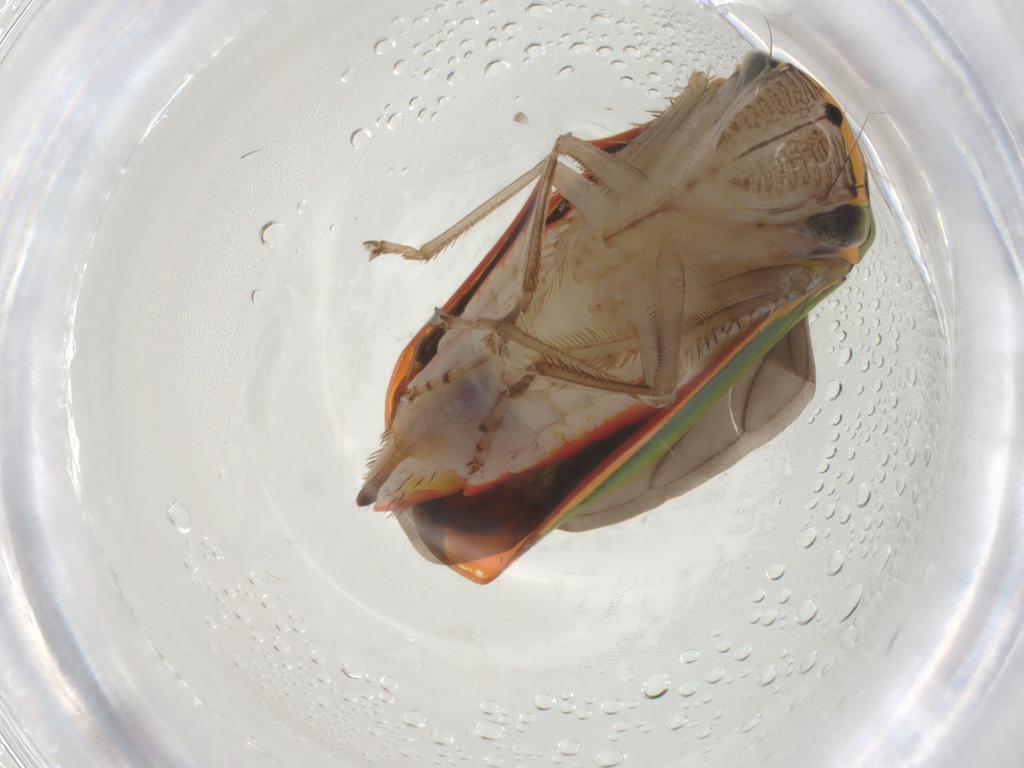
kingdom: Animalia
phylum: Arthropoda
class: Insecta
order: Hemiptera
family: Cicadellidae
